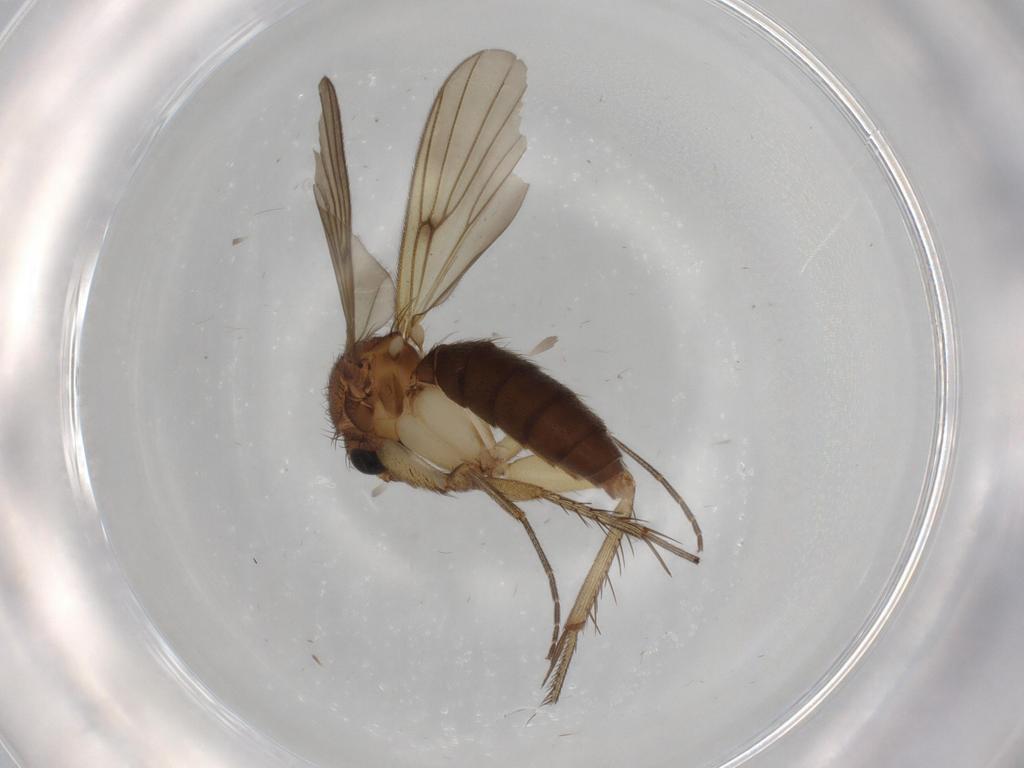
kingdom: Animalia
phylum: Arthropoda
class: Insecta
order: Diptera
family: Mycetophilidae
